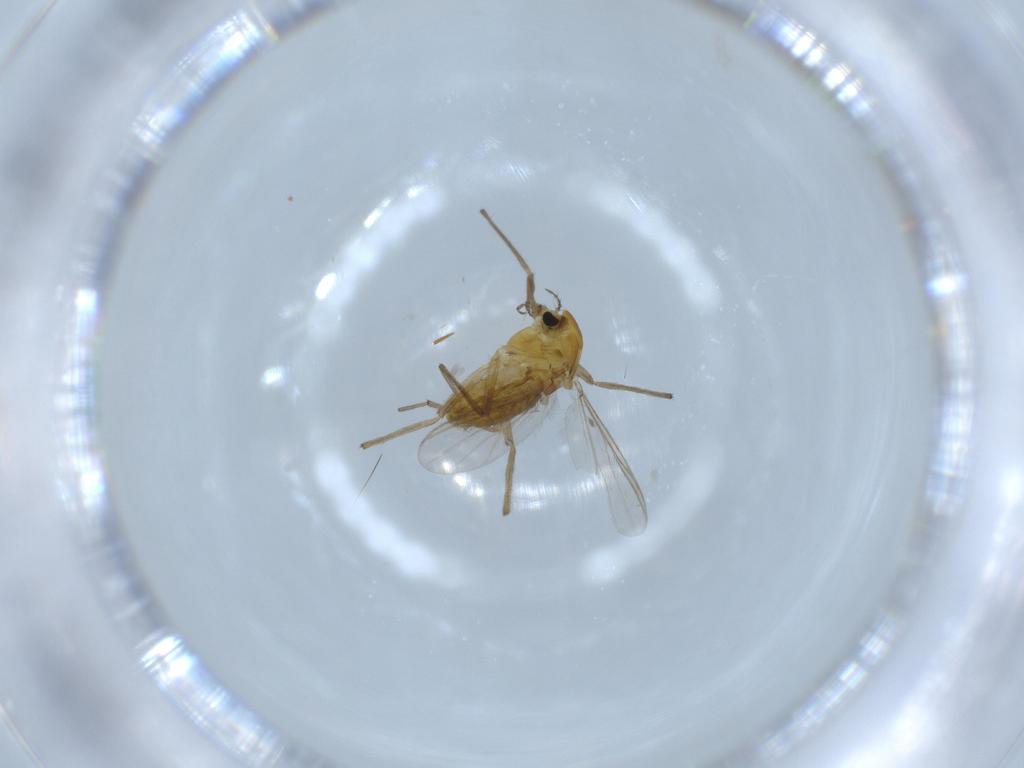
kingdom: Animalia
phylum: Arthropoda
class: Insecta
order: Diptera
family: Chironomidae
